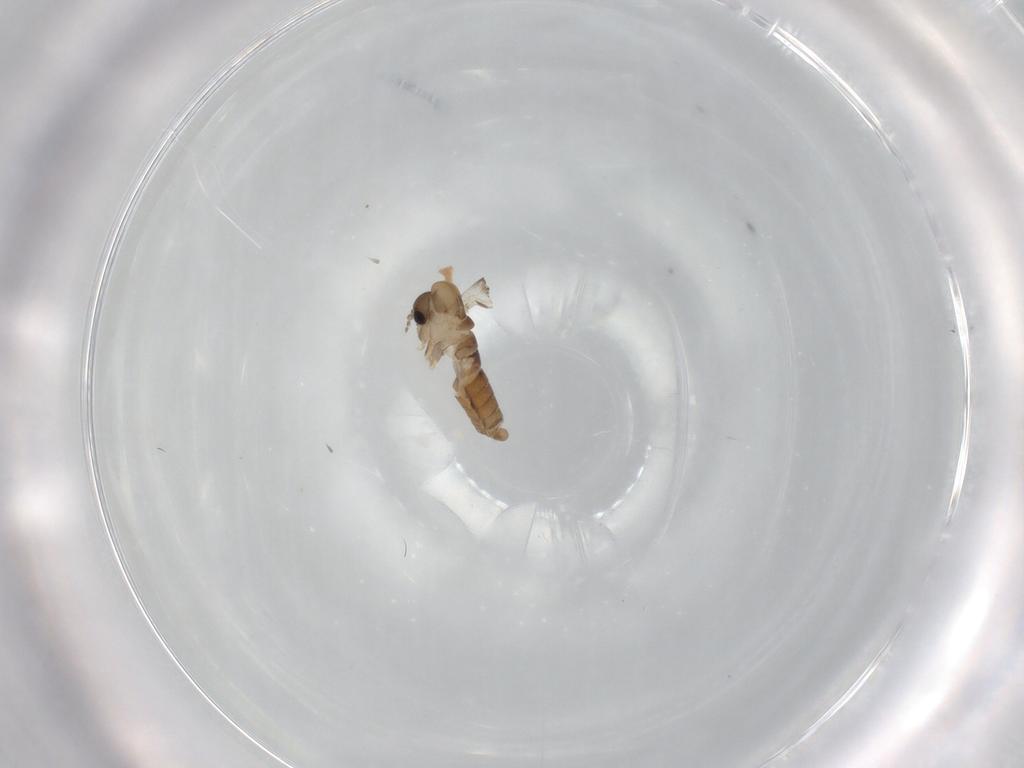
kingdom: Animalia
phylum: Arthropoda
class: Insecta
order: Diptera
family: Psychodidae
